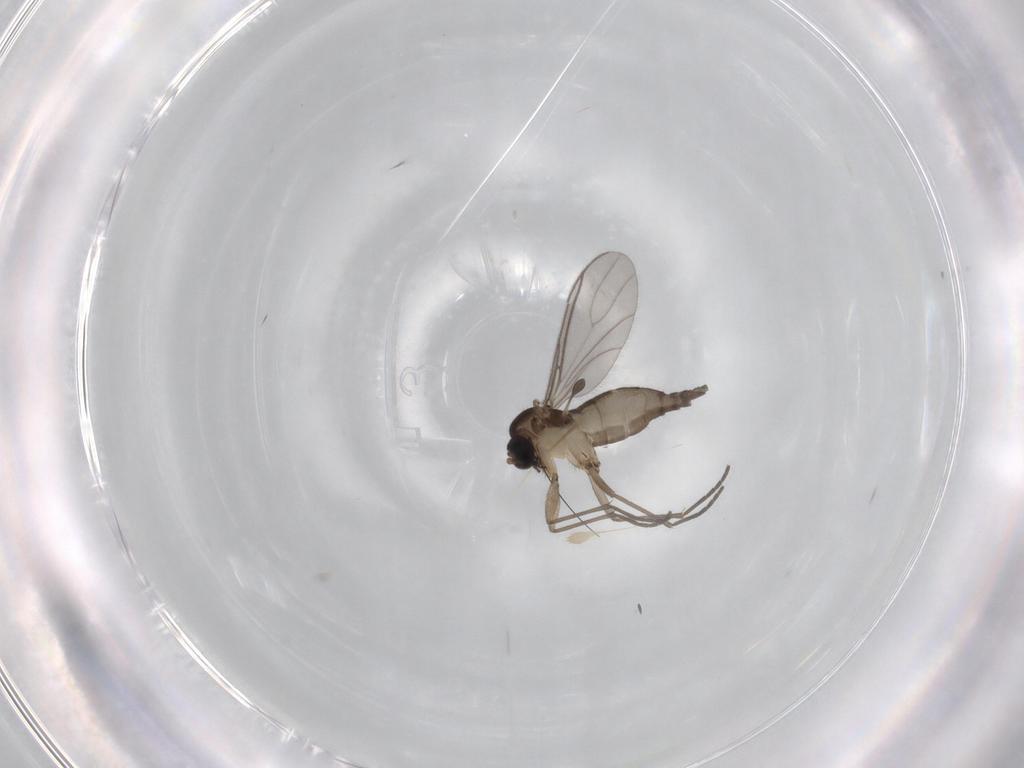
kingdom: Animalia
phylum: Arthropoda
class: Insecta
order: Diptera
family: Sciaridae
